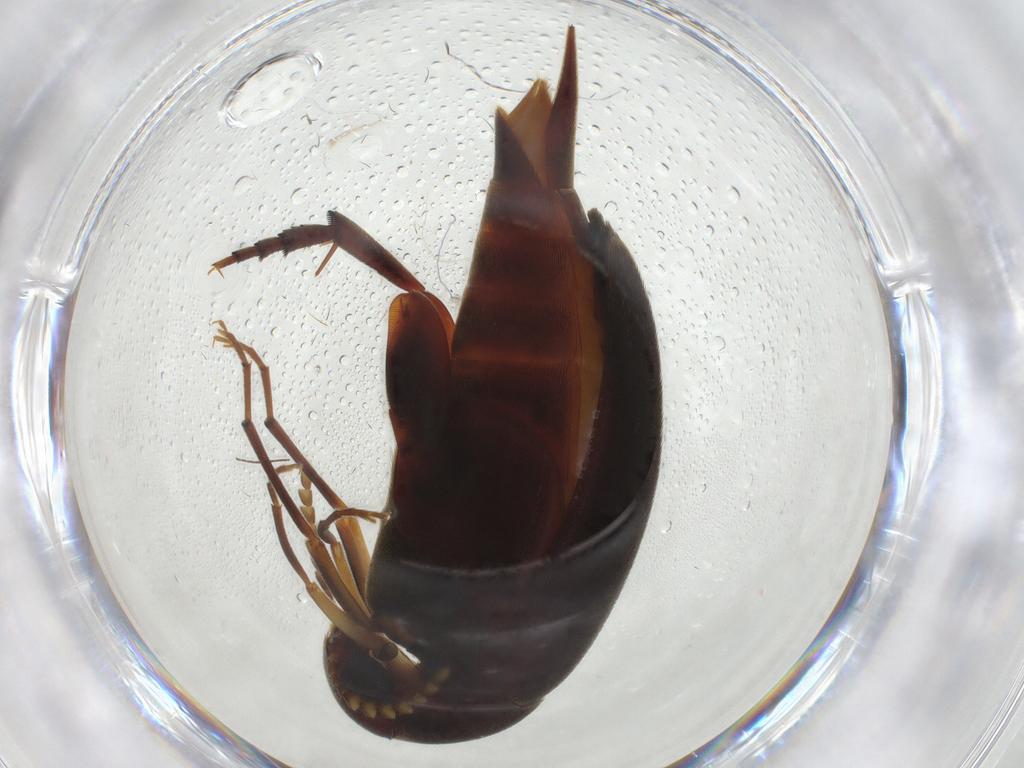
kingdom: Animalia
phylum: Arthropoda
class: Insecta
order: Coleoptera
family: Mordellidae
